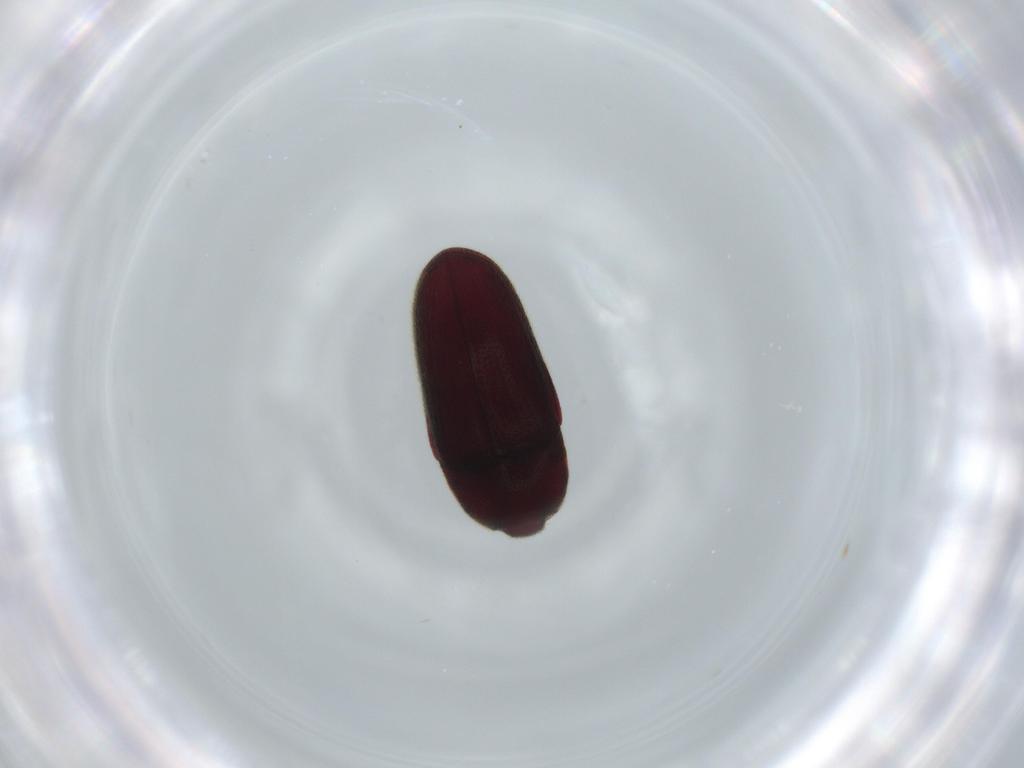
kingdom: Animalia
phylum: Arthropoda
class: Insecta
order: Coleoptera
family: Throscidae
